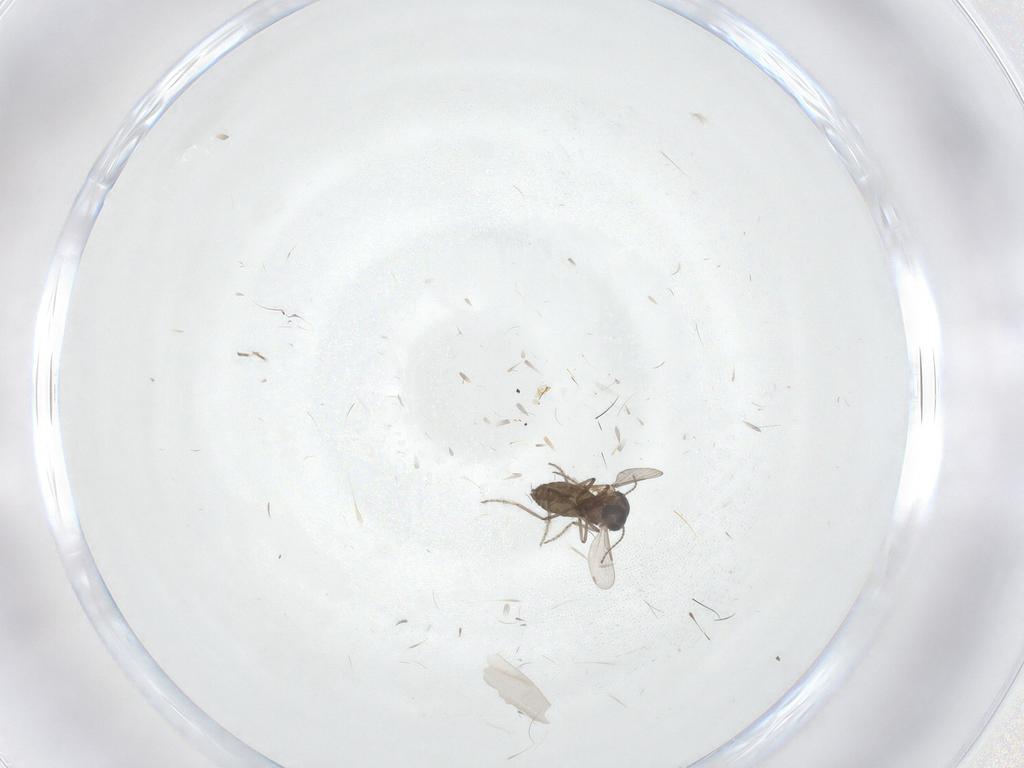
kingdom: Animalia
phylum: Arthropoda
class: Insecta
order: Diptera
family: Ceratopogonidae
